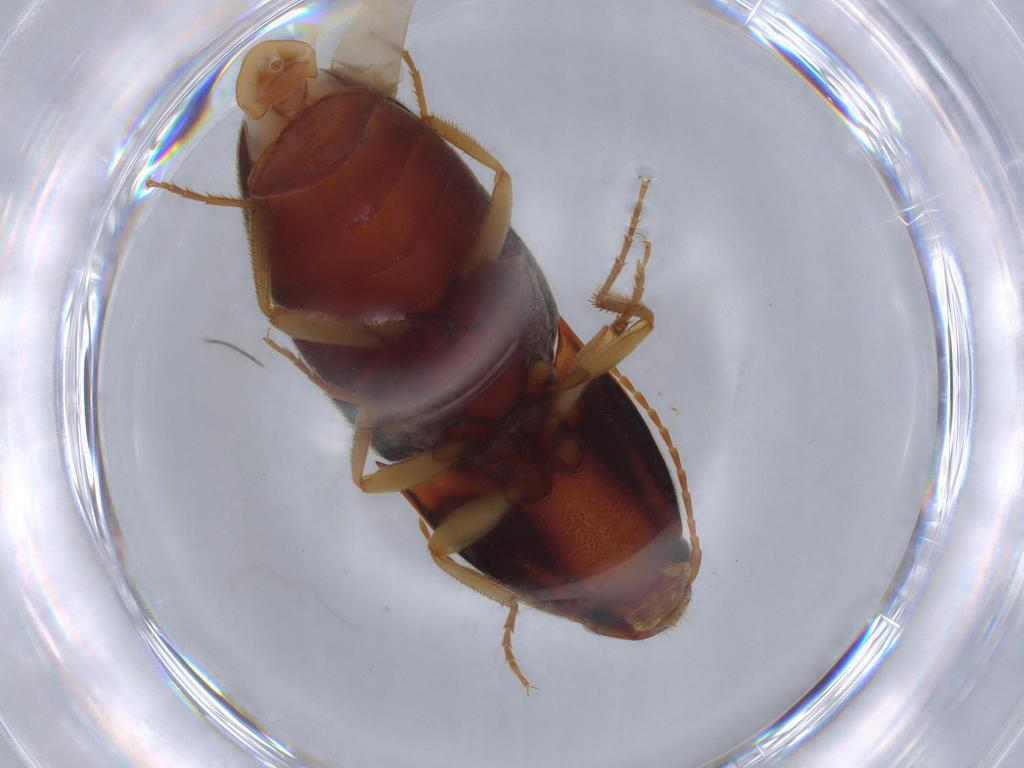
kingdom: Animalia
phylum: Arthropoda
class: Insecta
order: Coleoptera
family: Elateridae
